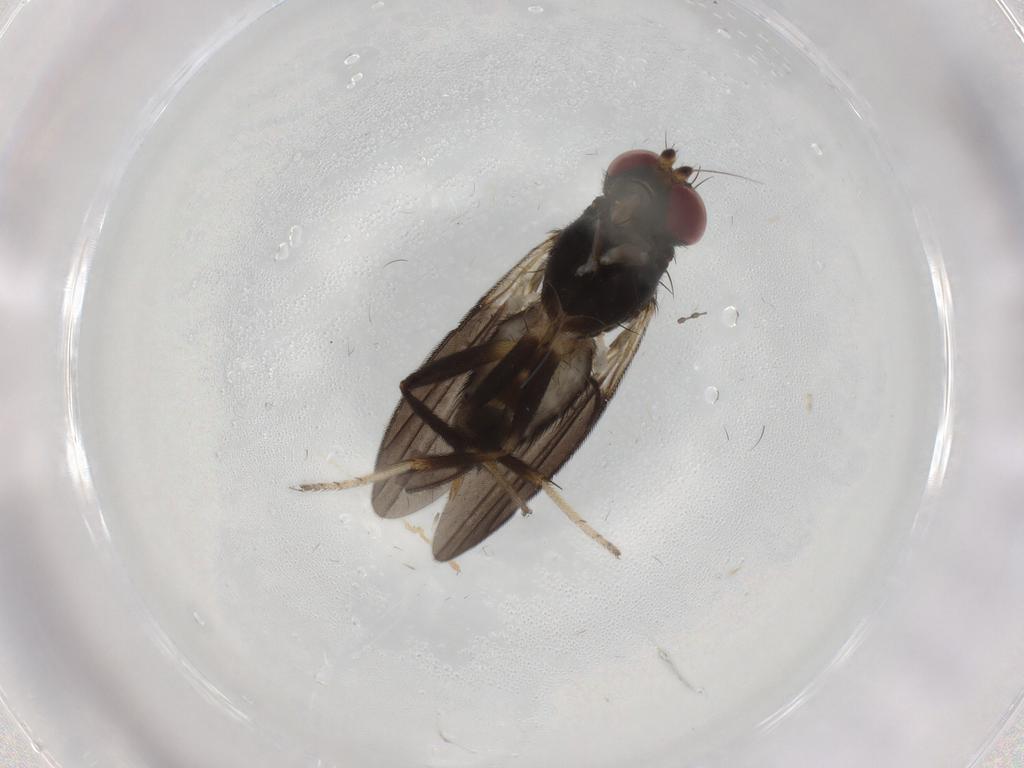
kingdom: Animalia
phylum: Arthropoda
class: Insecta
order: Diptera
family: Sciaridae
